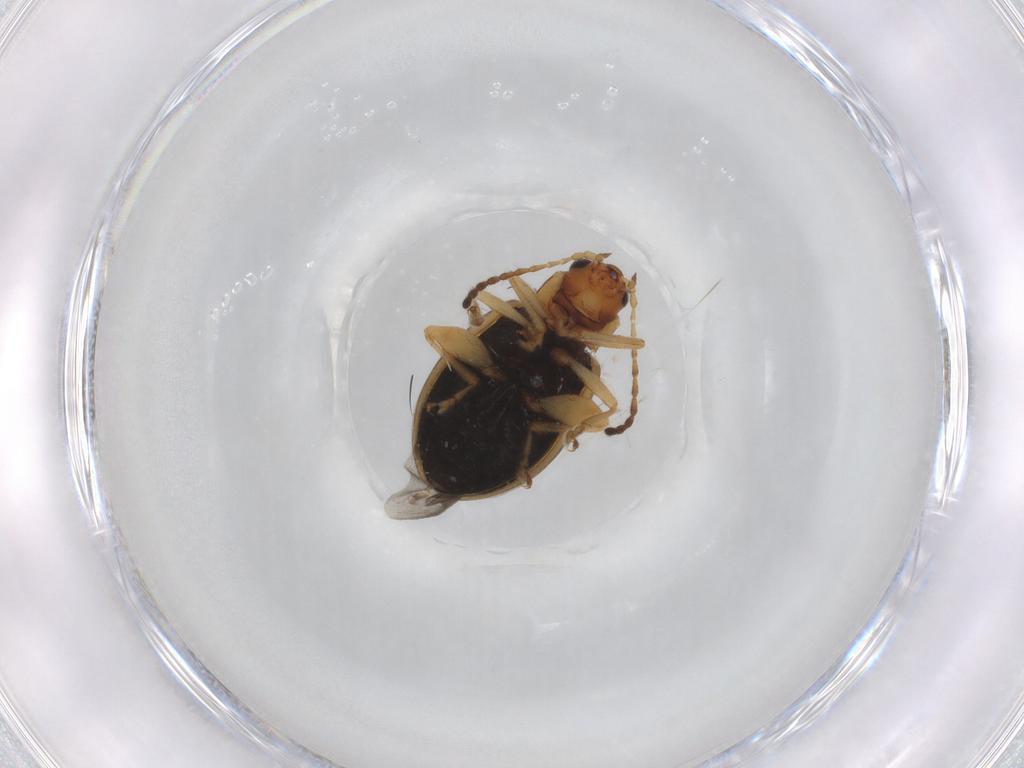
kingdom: Animalia
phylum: Arthropoda
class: Insecta
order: Coleoptera
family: Chrysomelidae
